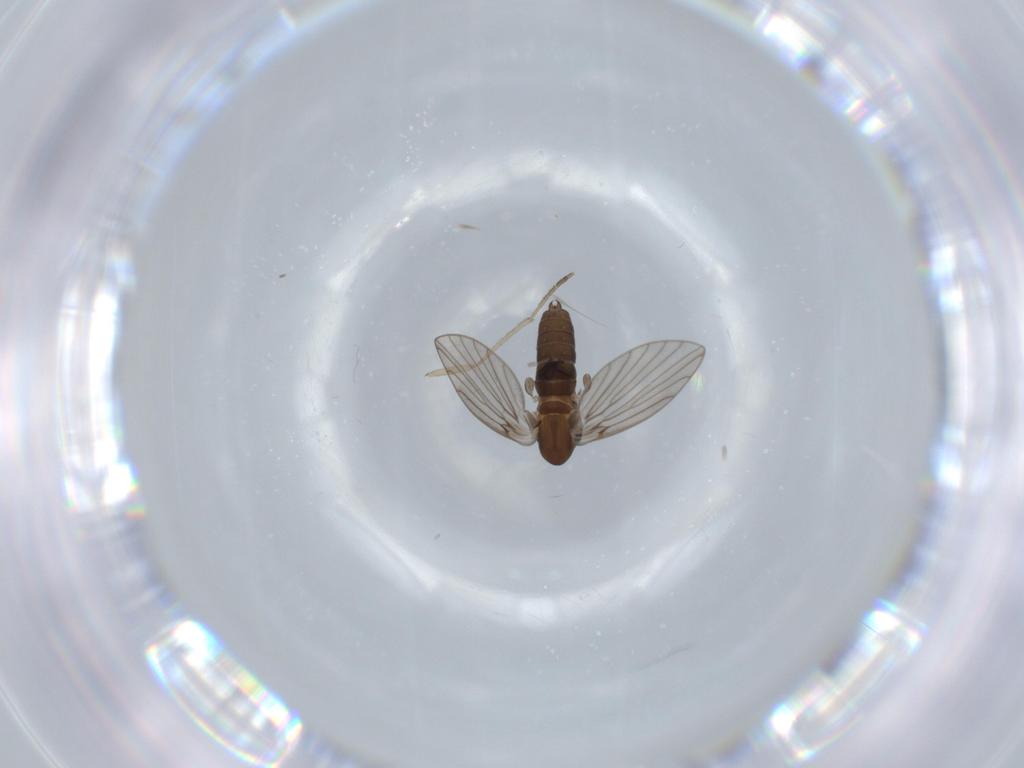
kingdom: Animalia
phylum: Arthropoda
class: Insecta
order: Diptera
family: Psychodidae
